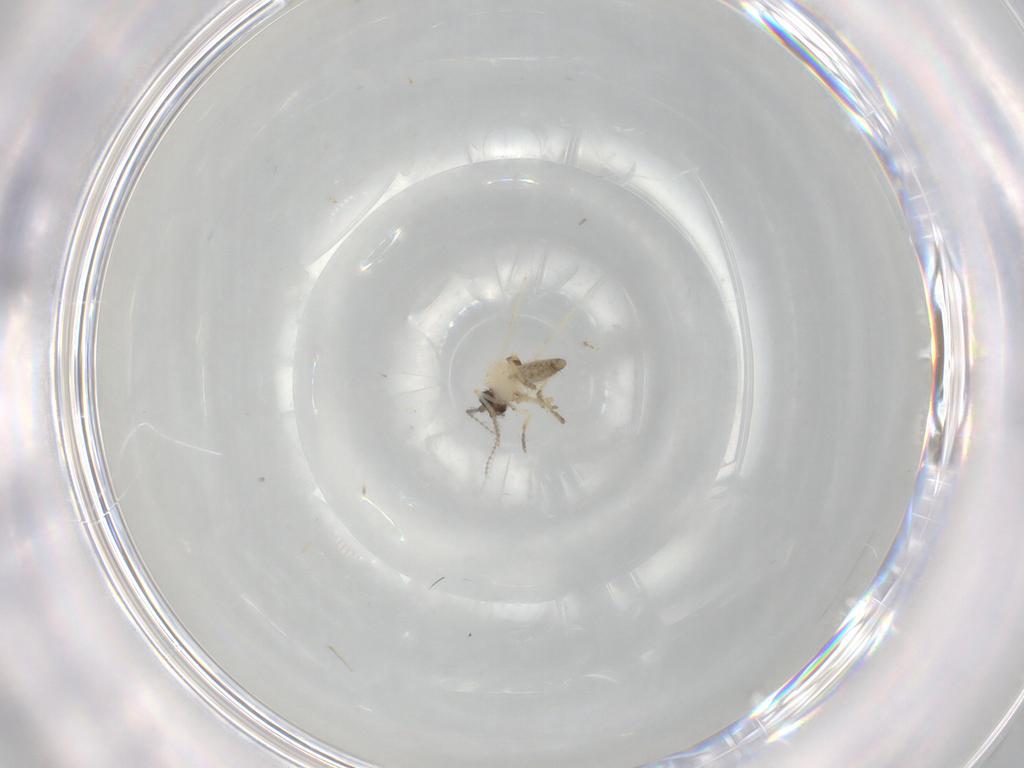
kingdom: Animalia
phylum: Arthropoda
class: Insecta
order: Diptera
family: Ceratopogonidae
